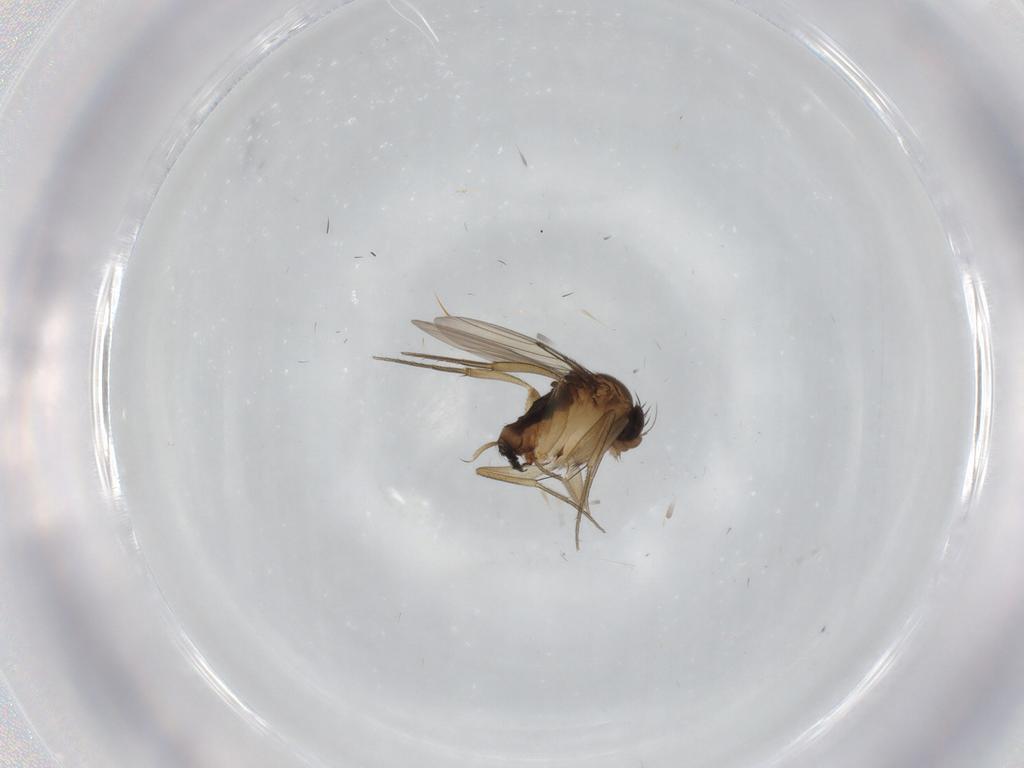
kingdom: Animalia
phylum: Arthropoda
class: Insecta
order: Diptera
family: Phoridae
